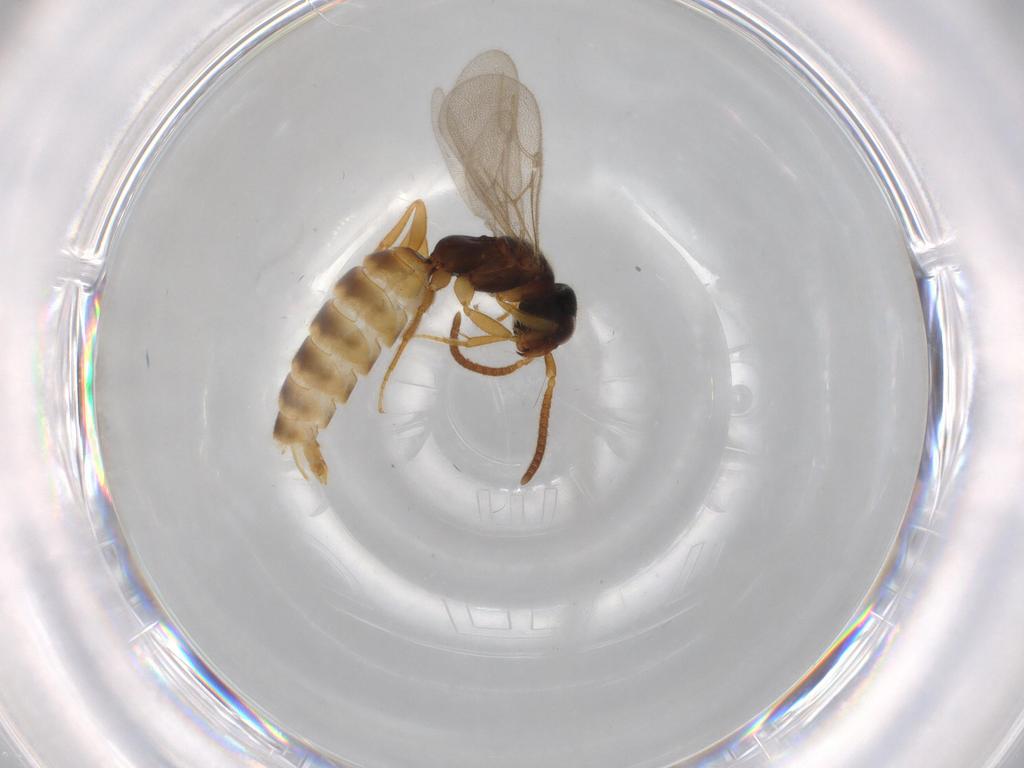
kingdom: Animalia
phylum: Arthropoda
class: Insecta
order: Hymenoptera
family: Bethylidae
